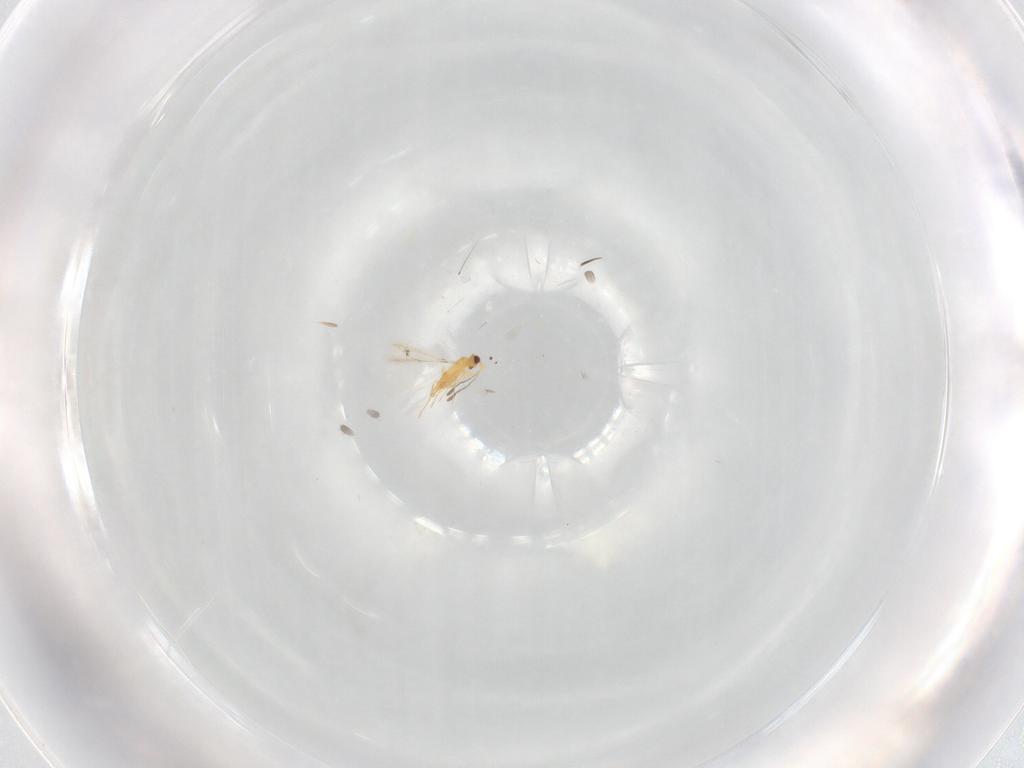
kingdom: Animalia
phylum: Arthropoda
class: Insecta
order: Hymenoptera
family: Mymaridae
